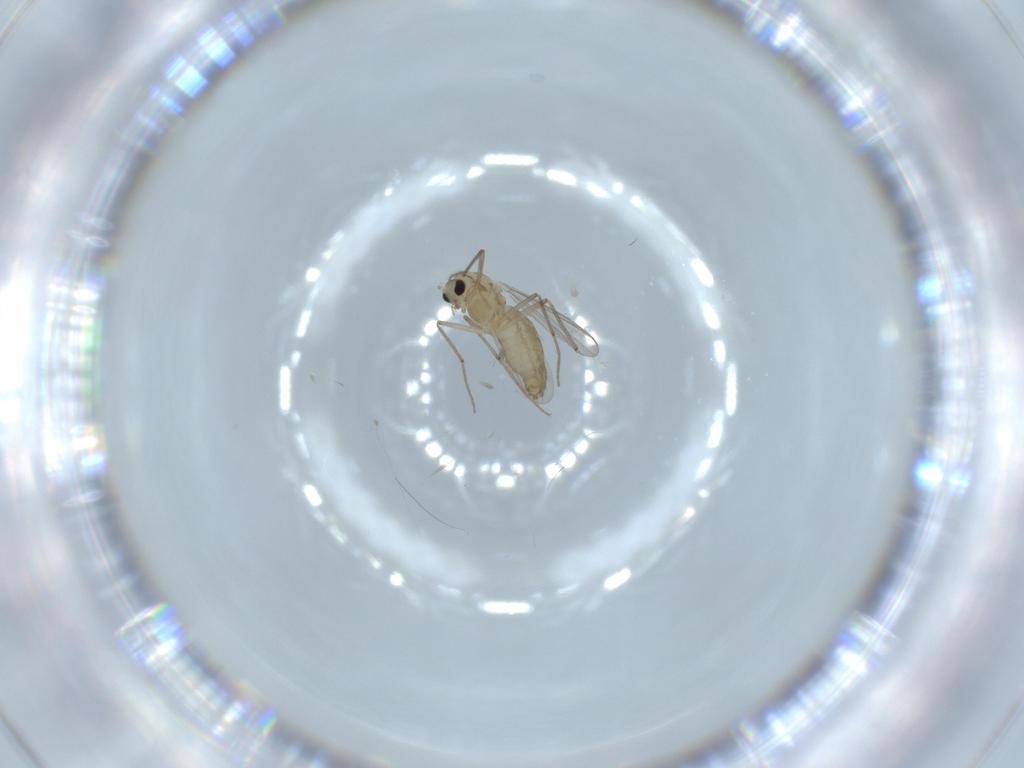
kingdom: Animalia
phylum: Arthropoda
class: Insecta
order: Diptera
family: Chironomidae
